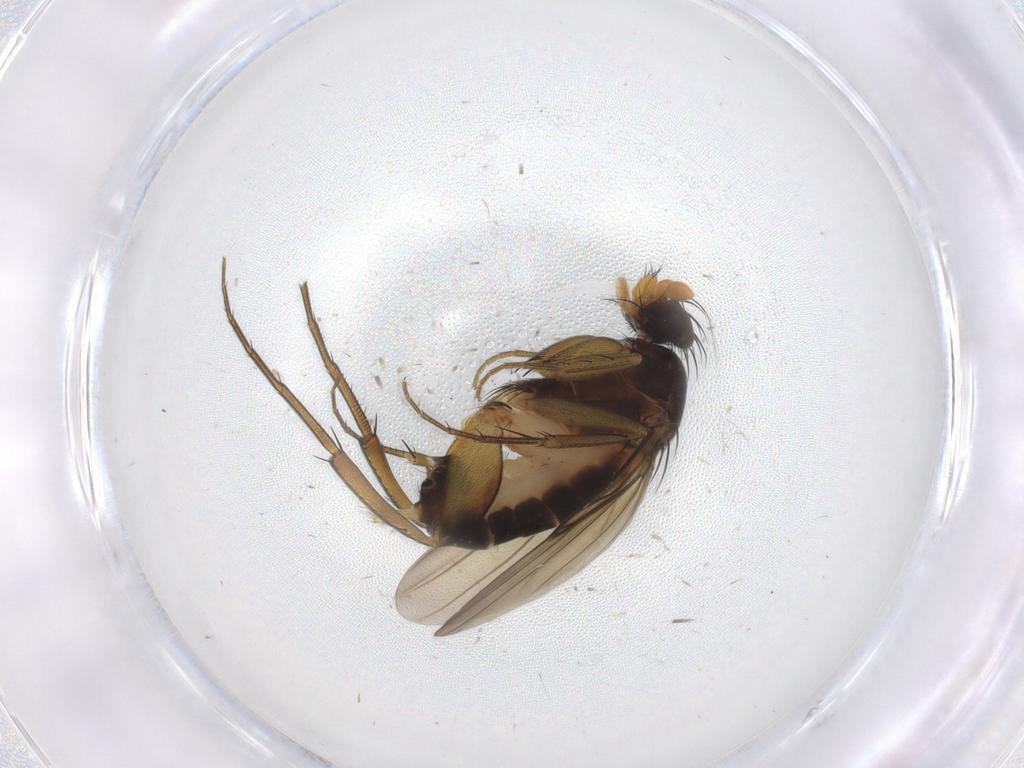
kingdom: Animalia
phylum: Arthropoda
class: Insecta
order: Diptera
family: Phoridae
